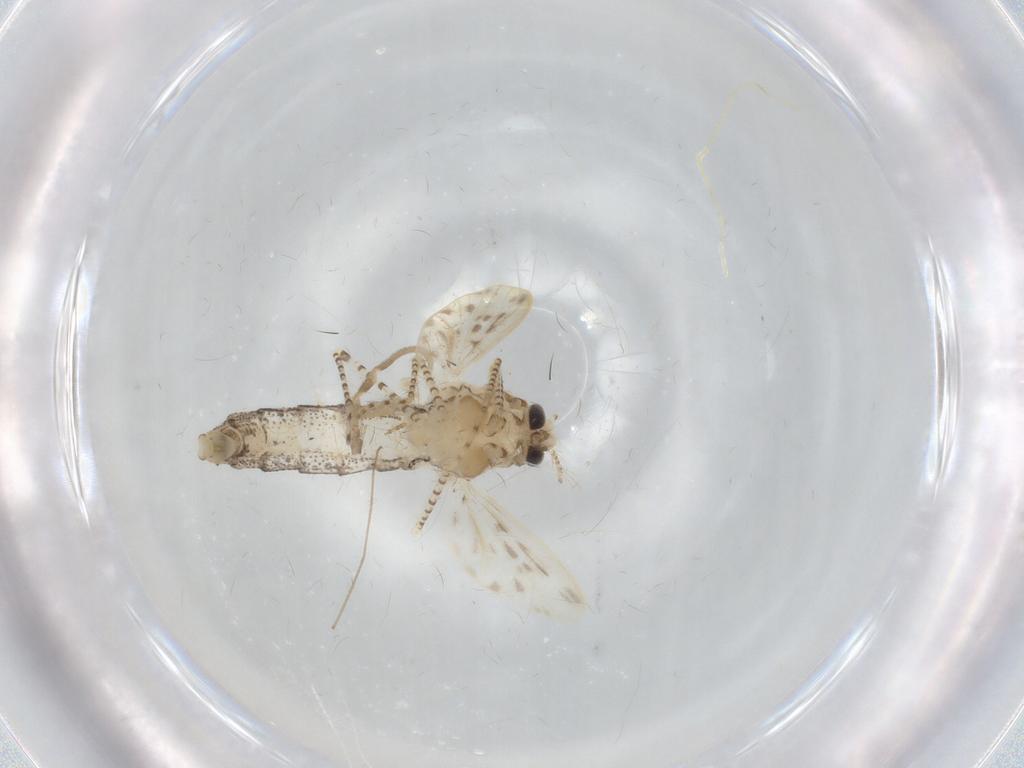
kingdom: Animalia
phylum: Arthropoda
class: Insecta
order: Diptera
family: Chaoboridae
